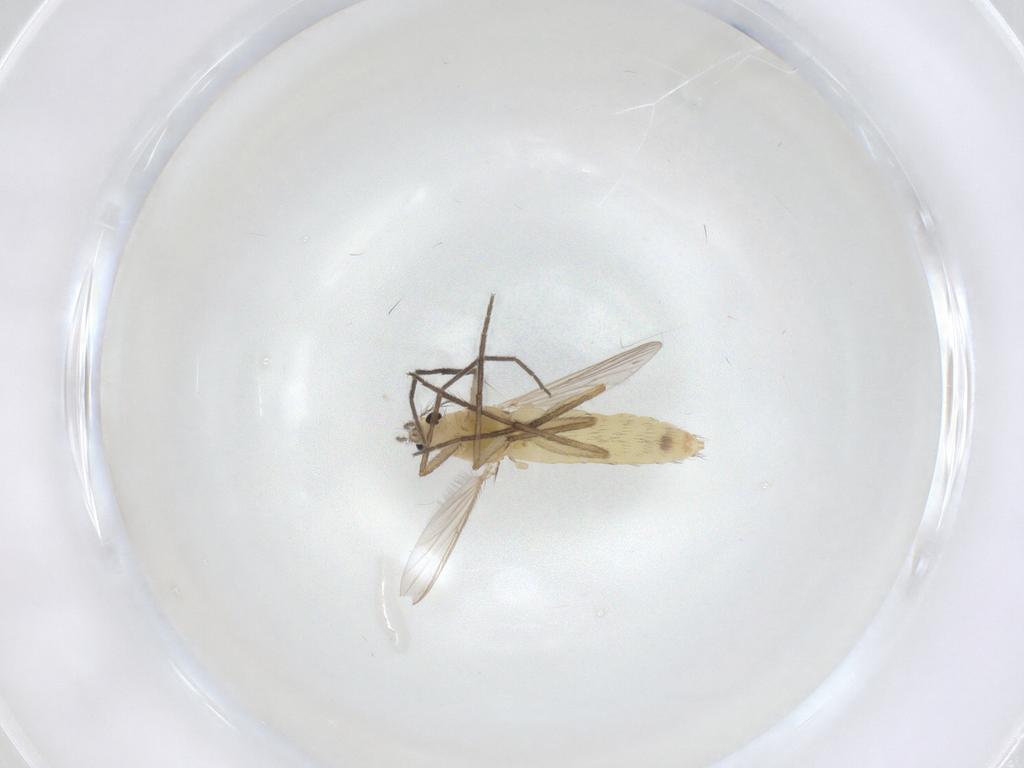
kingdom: Animalia
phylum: Arthropoda
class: Insecta
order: Diptera
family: Chironomidae
